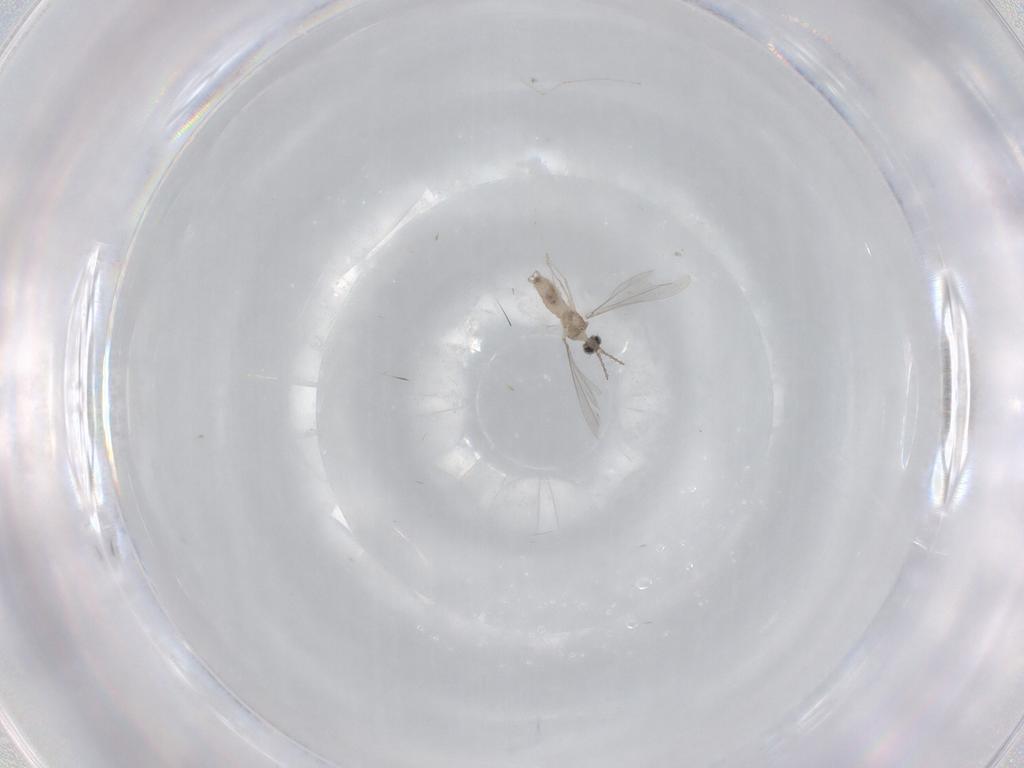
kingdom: Animalia
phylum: Arthropoda
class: Insecta
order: Diptera
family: Cecidomyiidae
